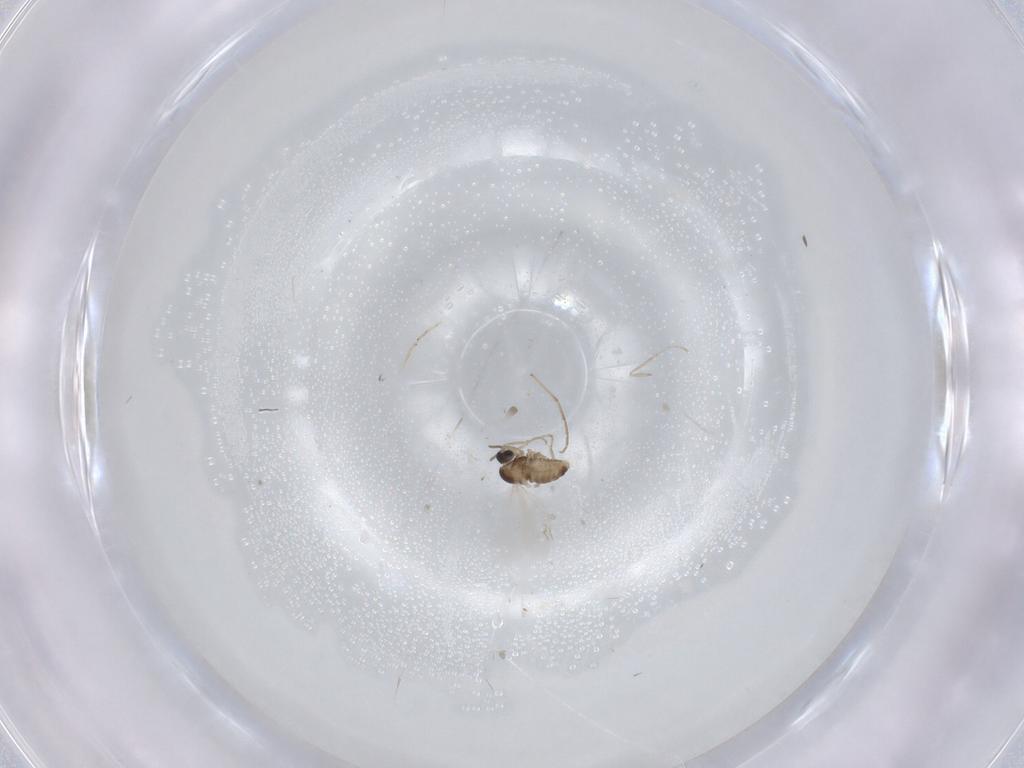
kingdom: Animalia
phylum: Arthropoda
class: Insecta
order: Diptera
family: Chironomidae
